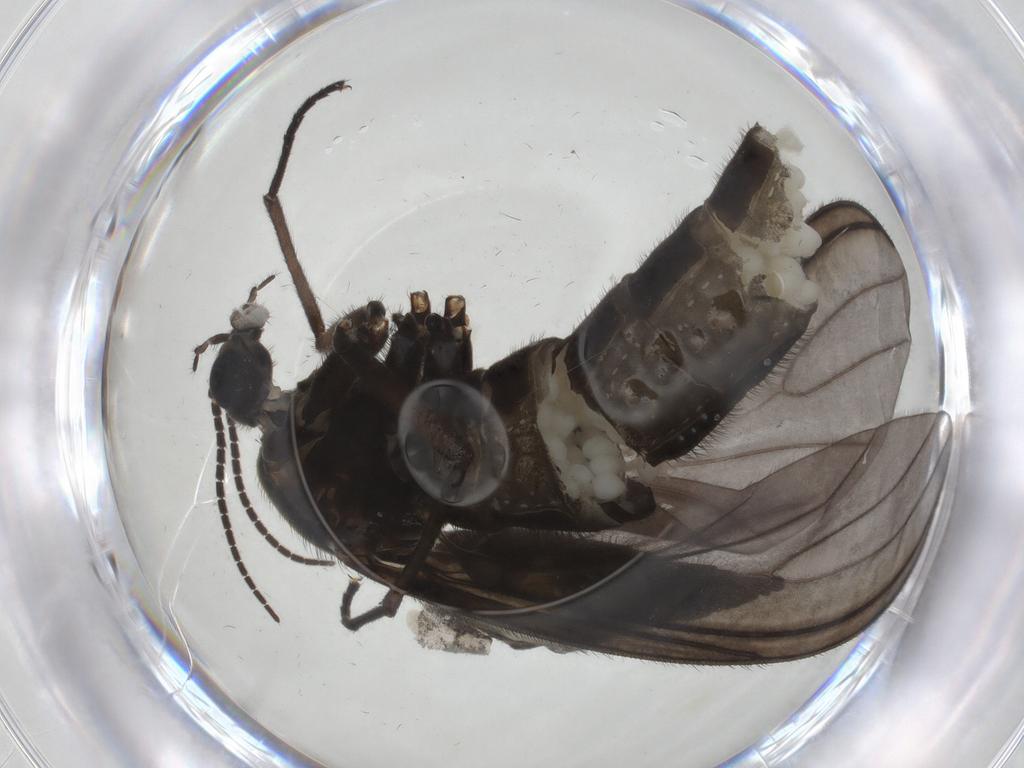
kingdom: Animalia
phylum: Arthropoda
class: Insecta
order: Diptera
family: Sciaridae
